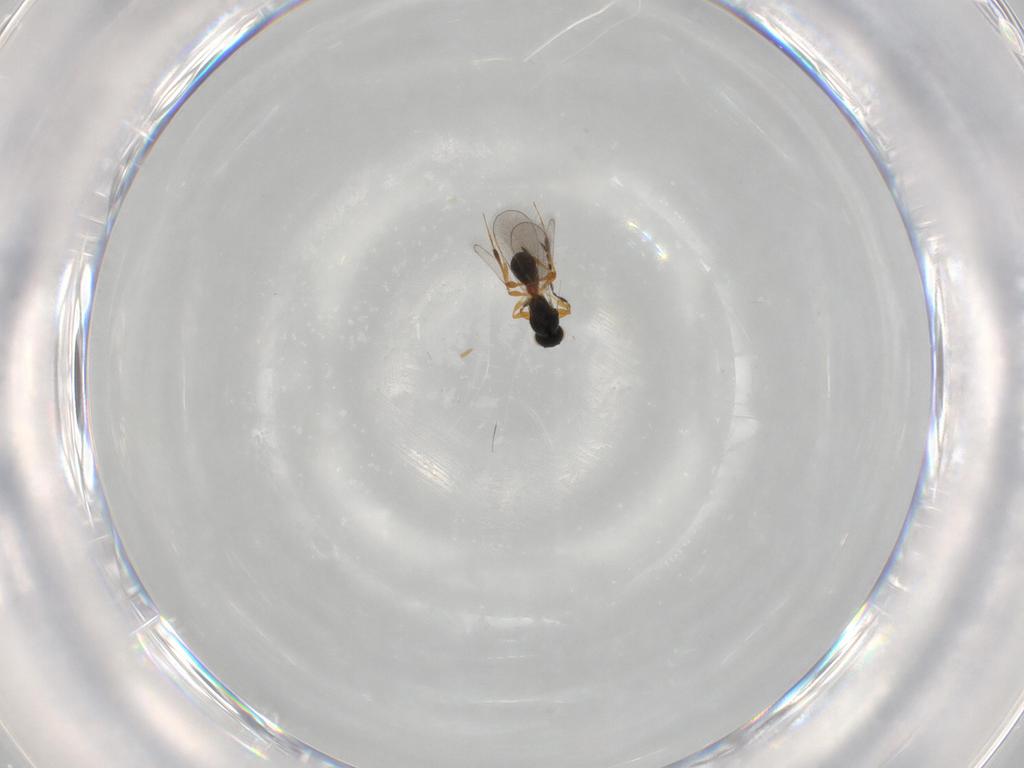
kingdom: Animalia
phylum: Arthropoda
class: Insecta
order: Hymenoptera
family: Platygastridae
